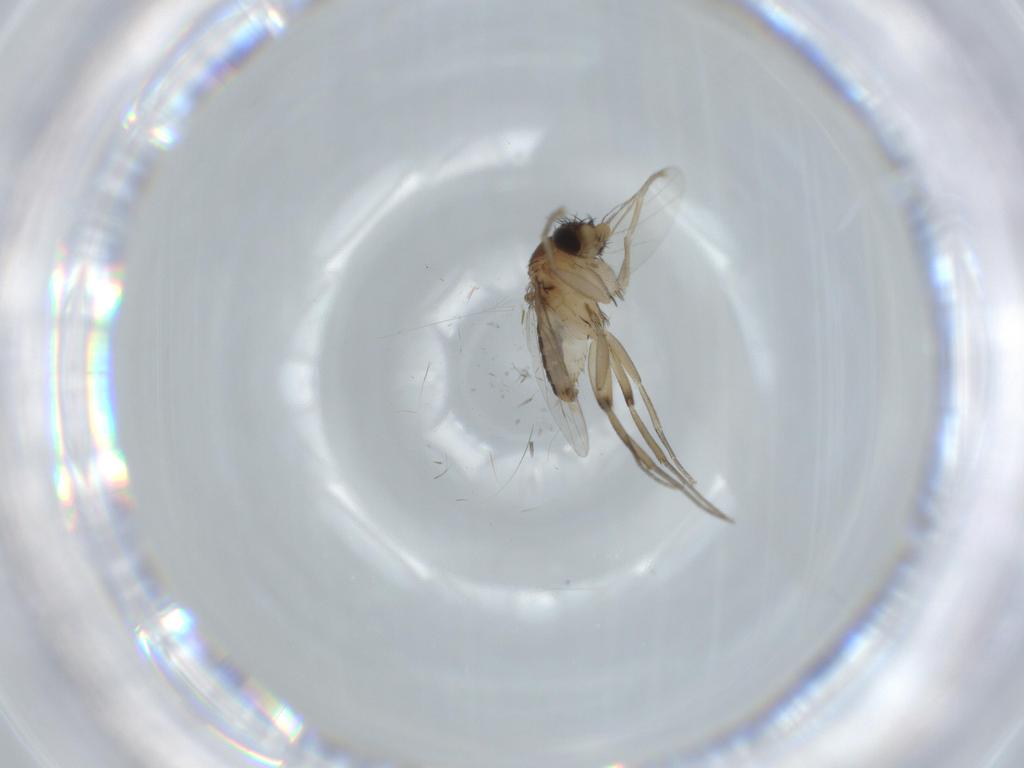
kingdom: Animalia
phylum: Arthropoda
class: Insecta
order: Diptera
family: Phoridae
